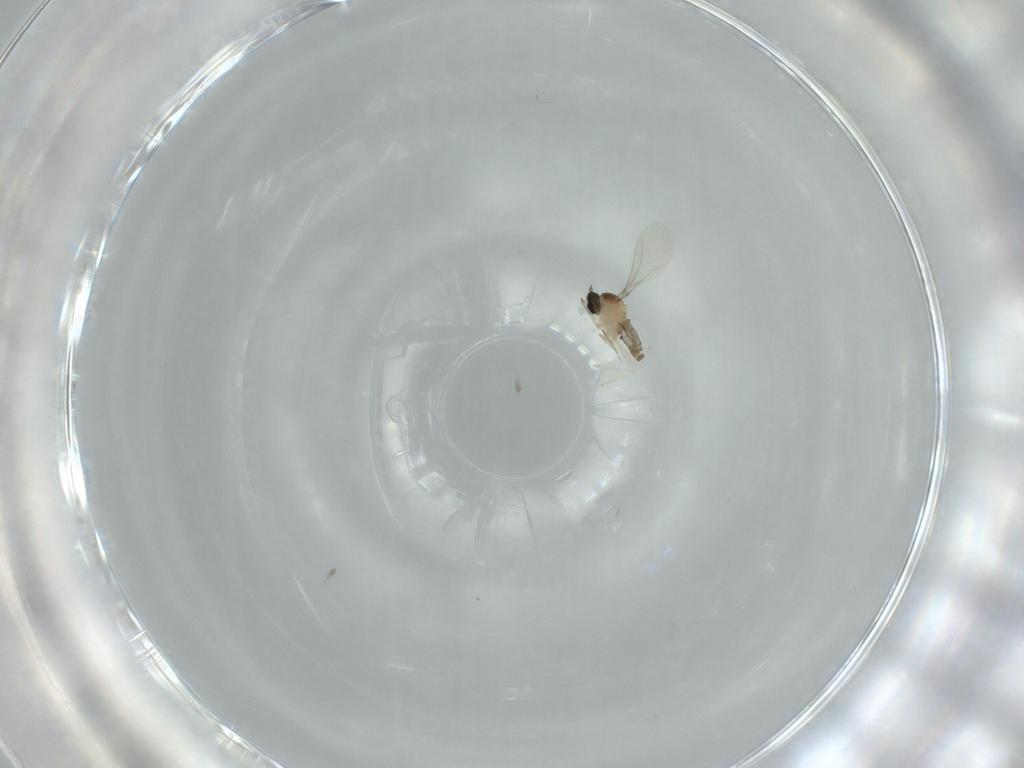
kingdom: Animalia
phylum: Arthropoda
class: Insecta
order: Diptera
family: Cecidomyiidae
